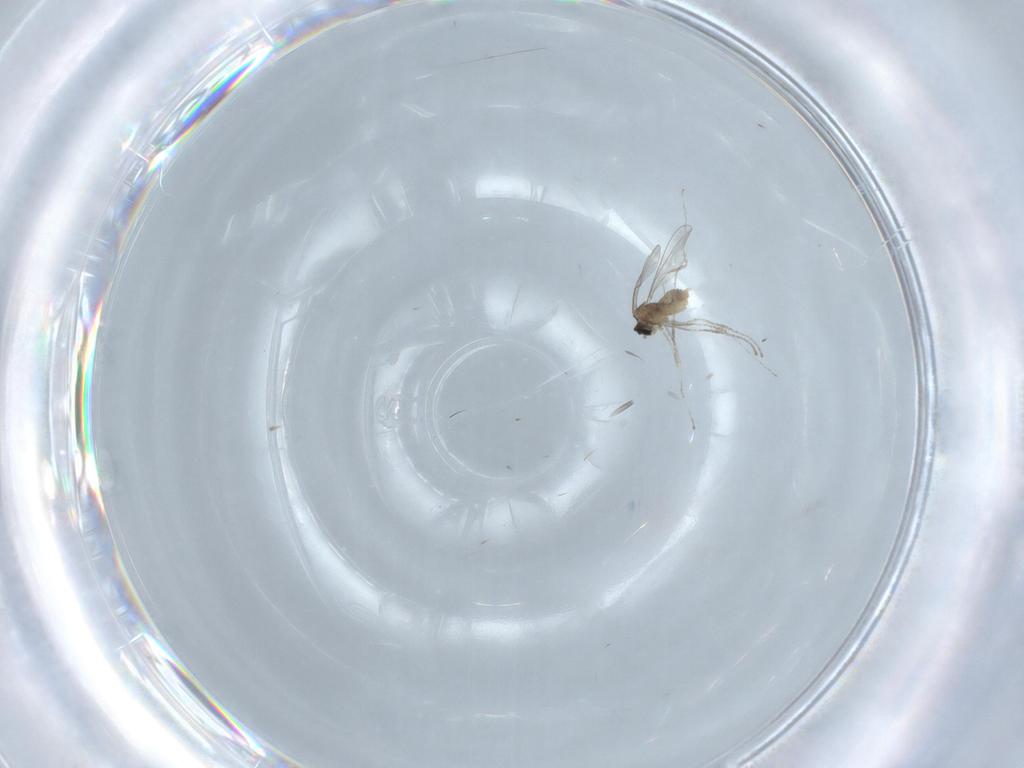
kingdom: Animalia
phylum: Arthropoda
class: Insecta
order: Diptera
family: Cecidomyiidae
